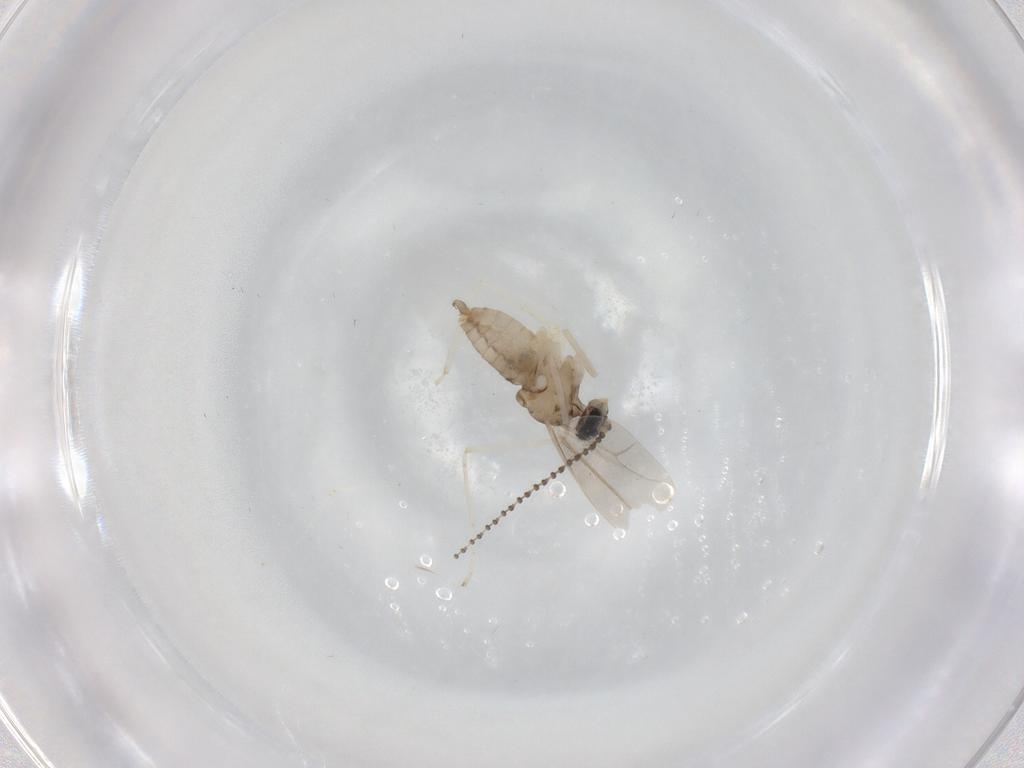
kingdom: Animalia
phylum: Arthropoda
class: Insecta
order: Diptera
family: Cecidomyiidae
